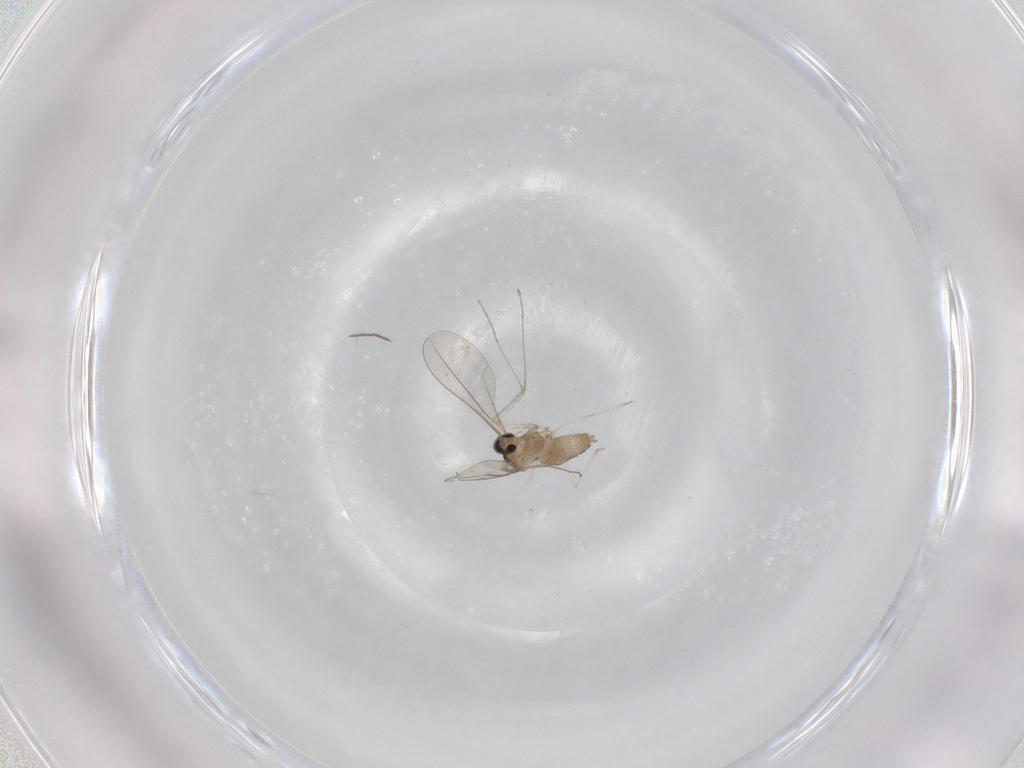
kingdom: Animalia
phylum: Arthropoda
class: Insecta
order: Diptera
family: Cecidomyiidae
